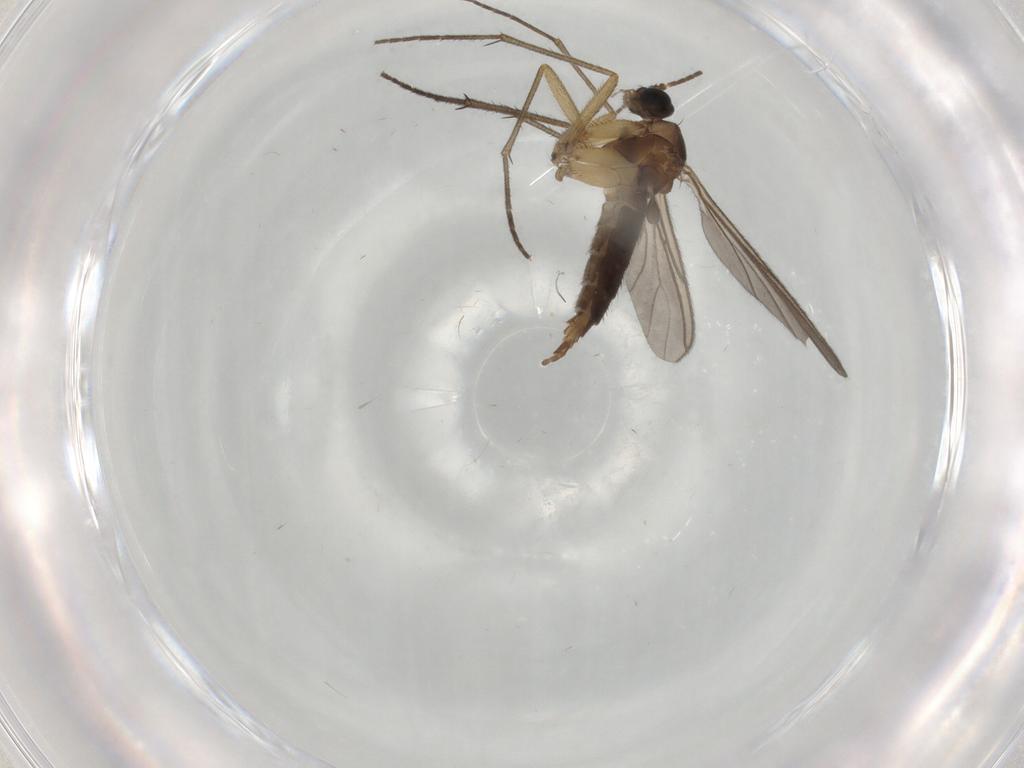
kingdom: Animalia
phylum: Arthropoda
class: Insecta
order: Diptera
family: Sciaridae
